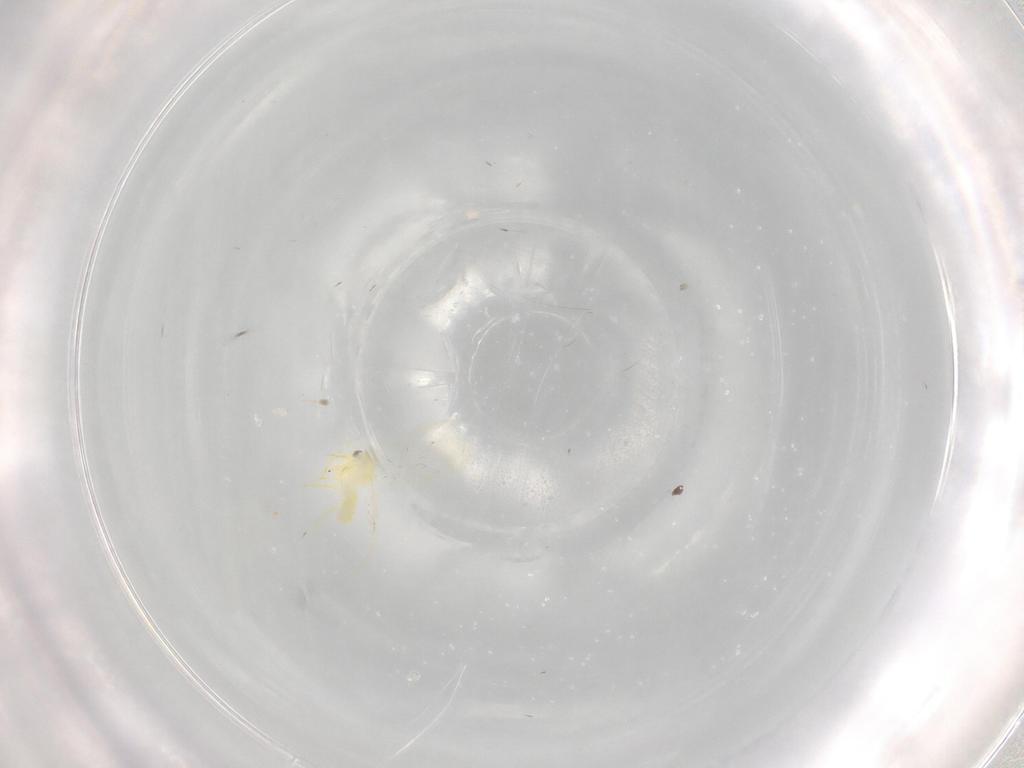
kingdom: Animalia
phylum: Arthropoda
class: Insecta
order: Hemiptera
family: Aleyrodidae
